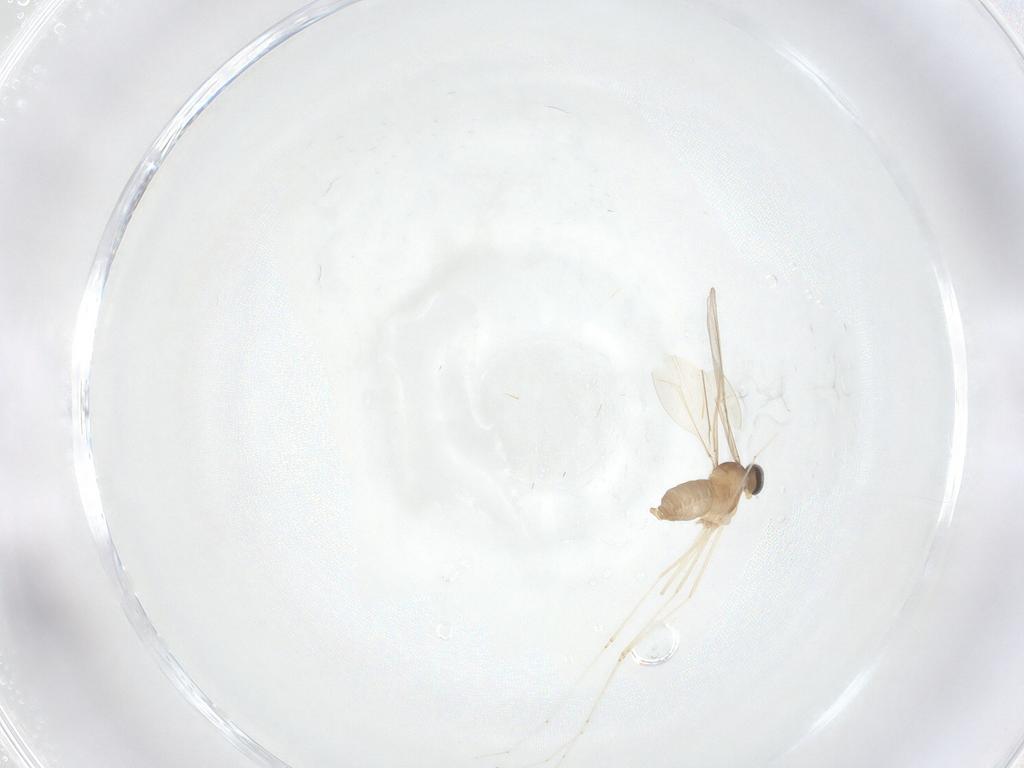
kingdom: Animalia
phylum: Arthropoda
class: Insecta
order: Diptera
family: Cecidomyiidae
